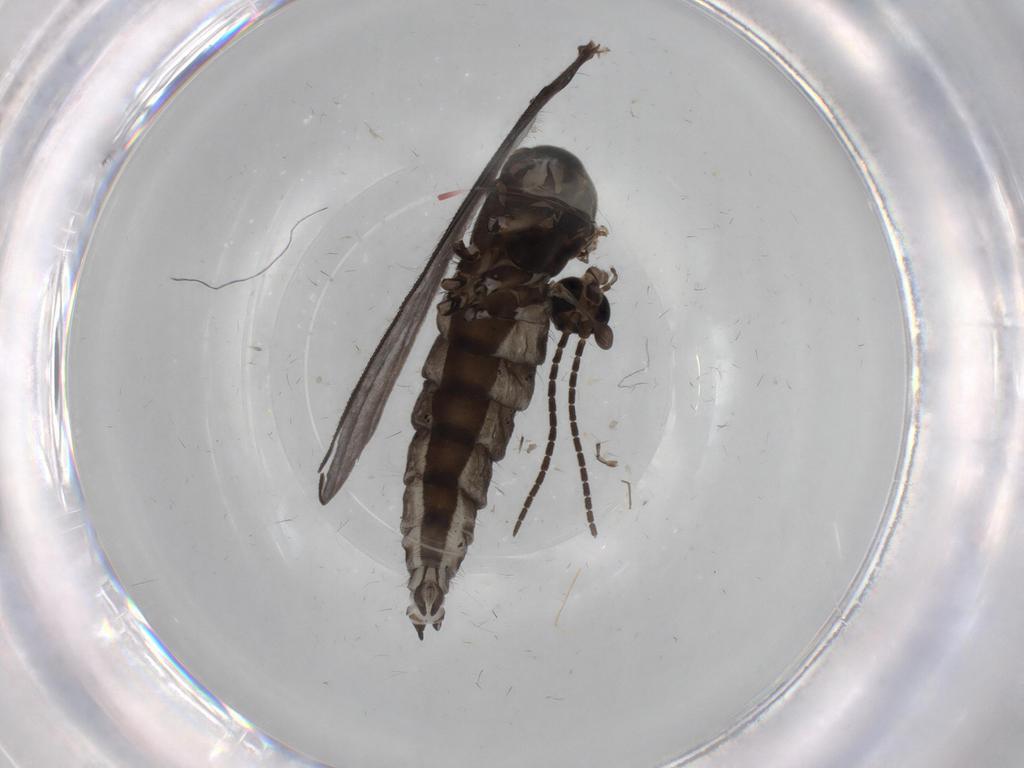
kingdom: Animalia
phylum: Arthropoda
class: Insecta
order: Diptera
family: Sciaridae
